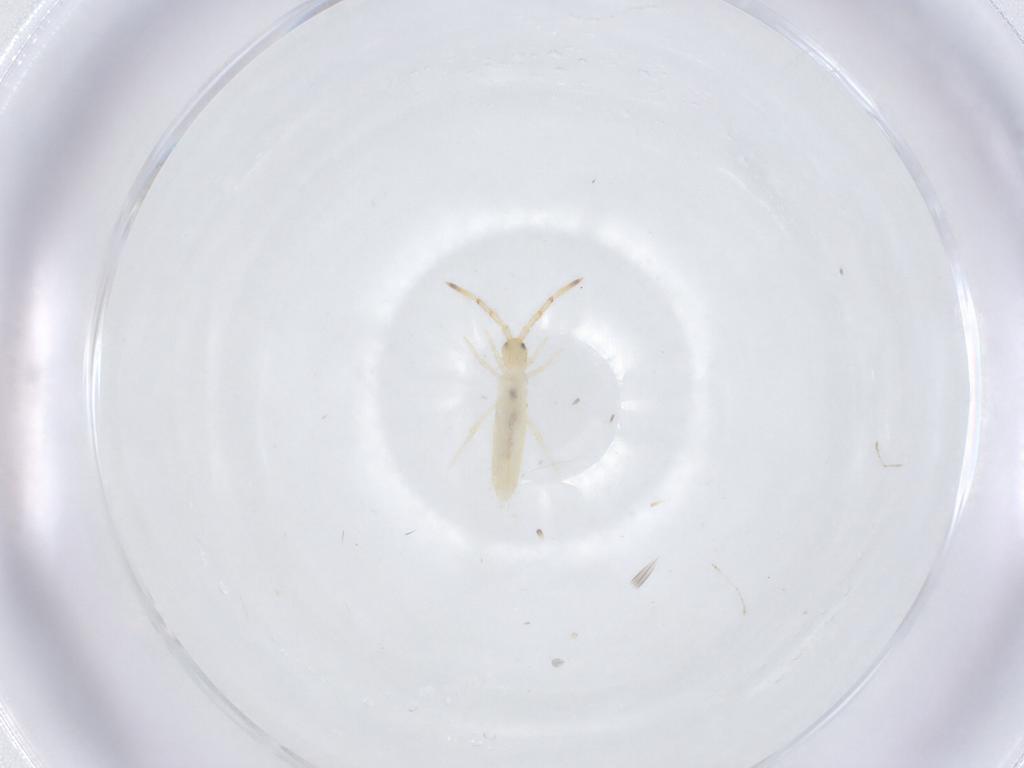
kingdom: Animalia
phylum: Arthropoda
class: Collembola
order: Entomobryomorpha
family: Entomobryidae
